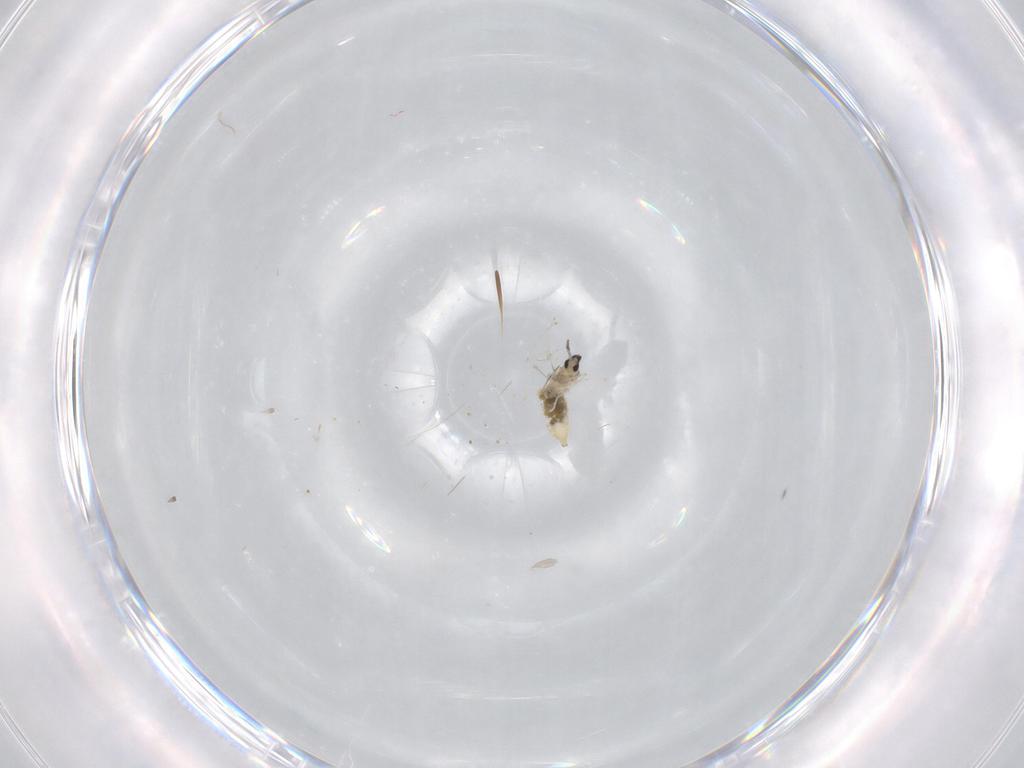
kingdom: Animalia
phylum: Arthropoda
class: Insecta
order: Diptera
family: Cecidomyiidae
